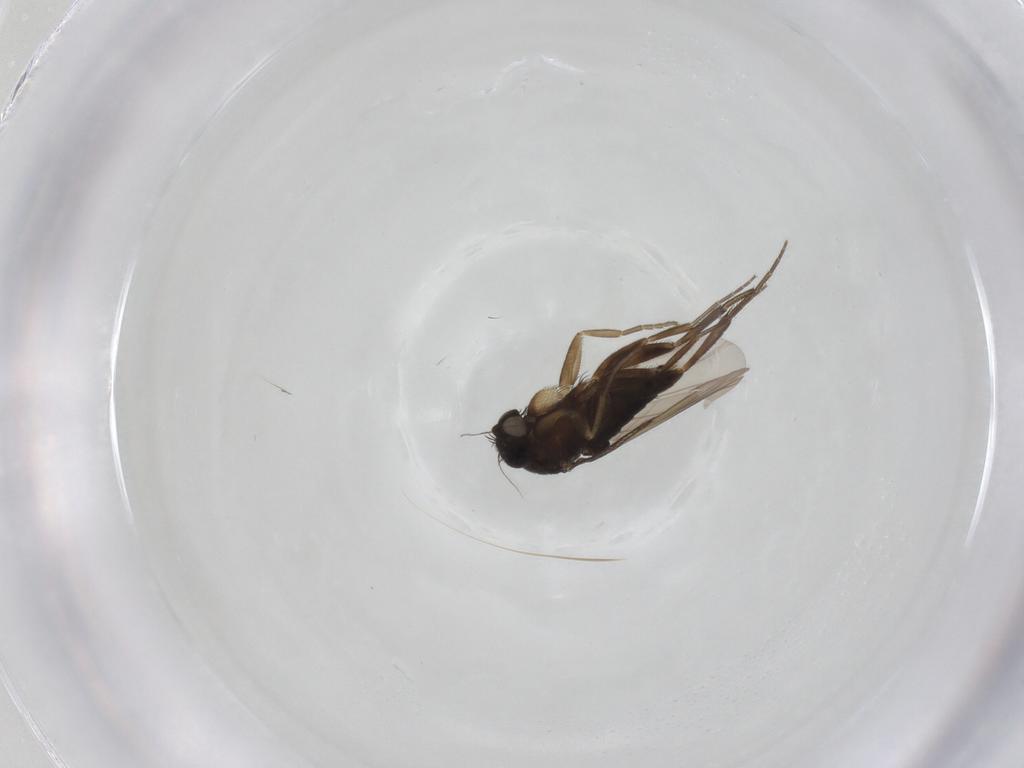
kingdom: Animalia
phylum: Arthropoda
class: Insecta
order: Diptera
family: Phoridae
